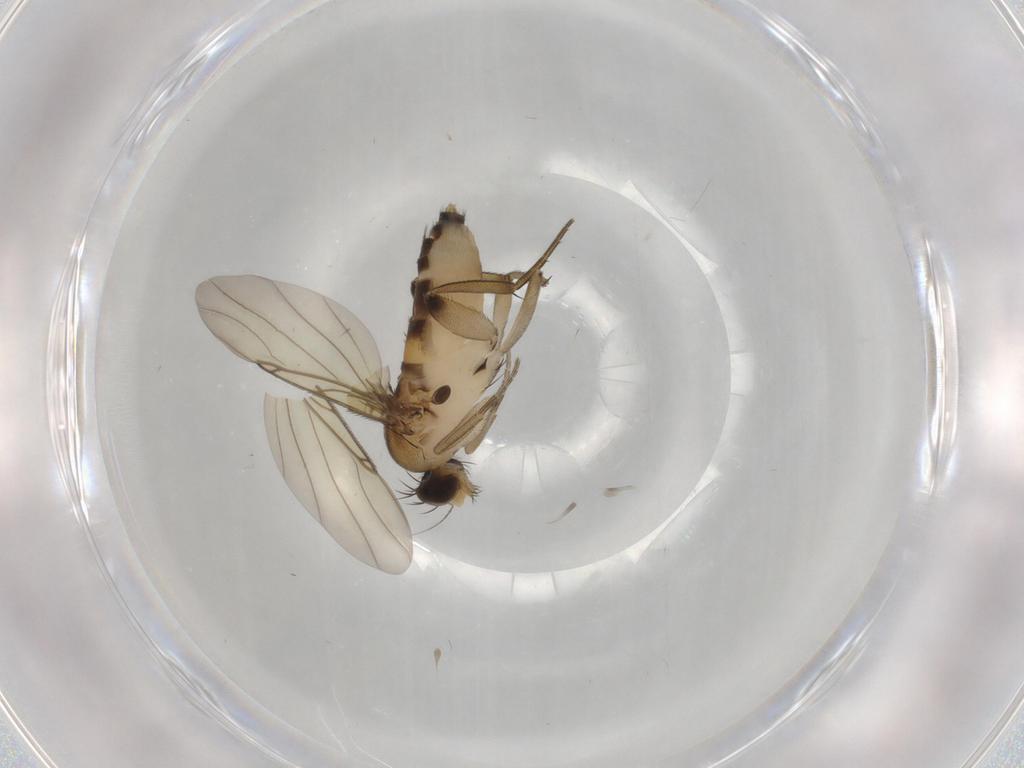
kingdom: Animalia
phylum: Arthropoda
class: Insecta
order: Diptera
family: Phoridae
